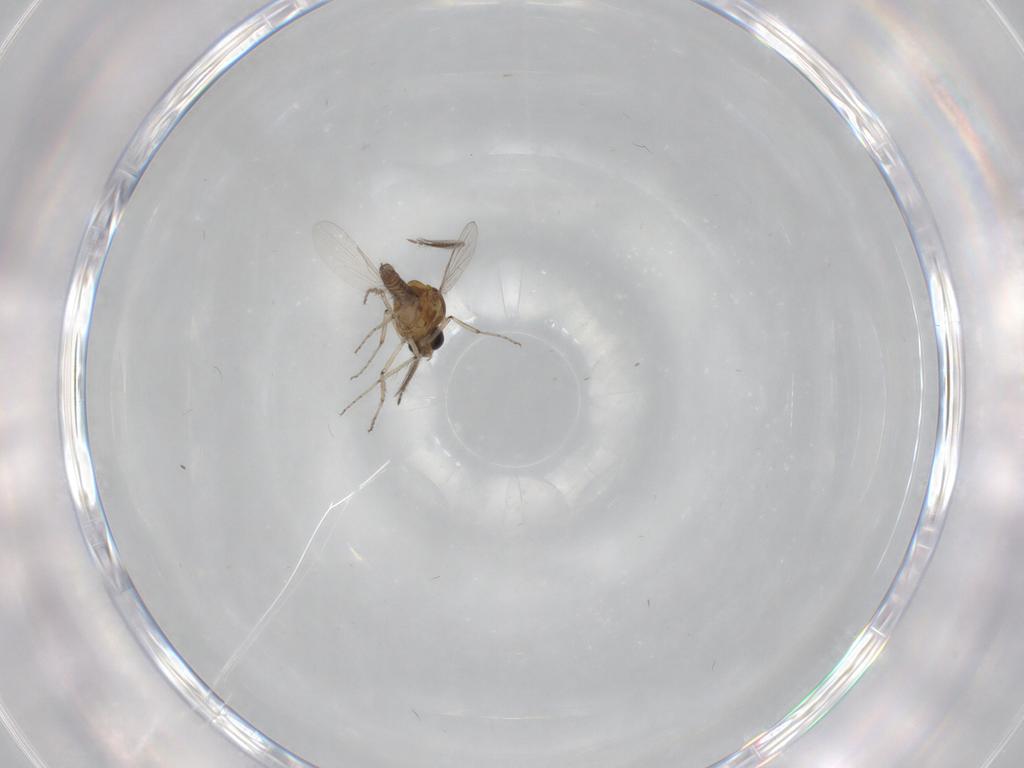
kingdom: Animalia
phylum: Arthropoda
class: Insecta
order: Diptera
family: Ceratopogonidae
